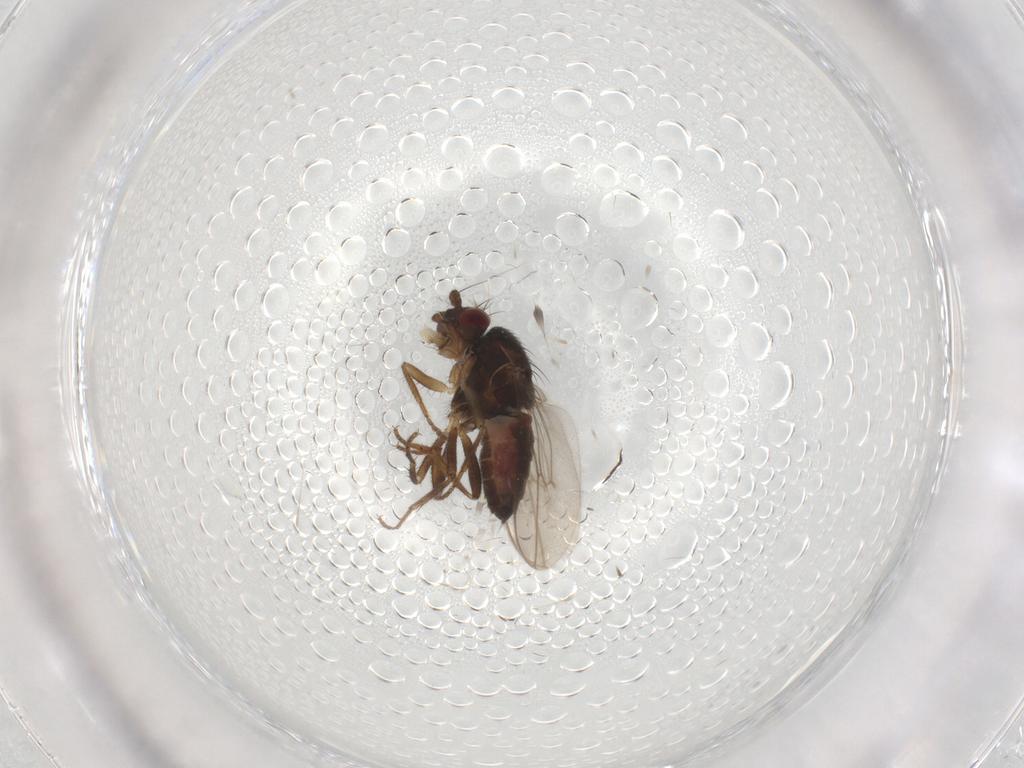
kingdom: Animalia
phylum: Arthropoda
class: Insecta
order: Diptera
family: Sphaeroceridae
